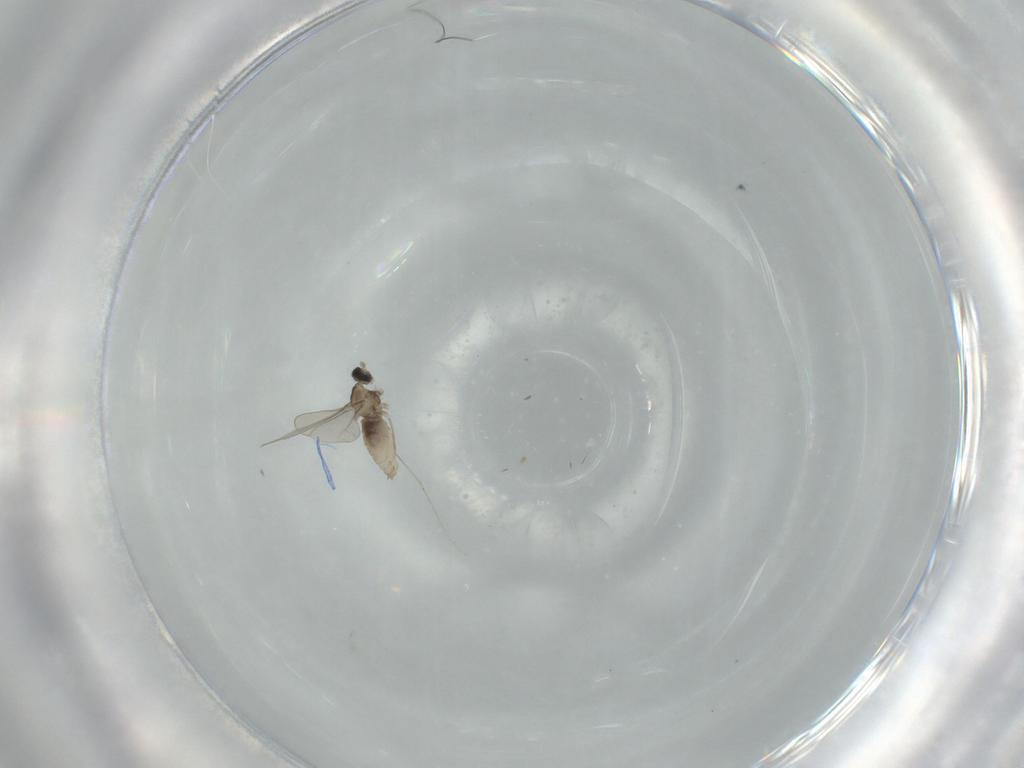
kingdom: Animalia
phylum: Arthropoda
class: Insecta
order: Diptera
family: Cecidomyiidae
